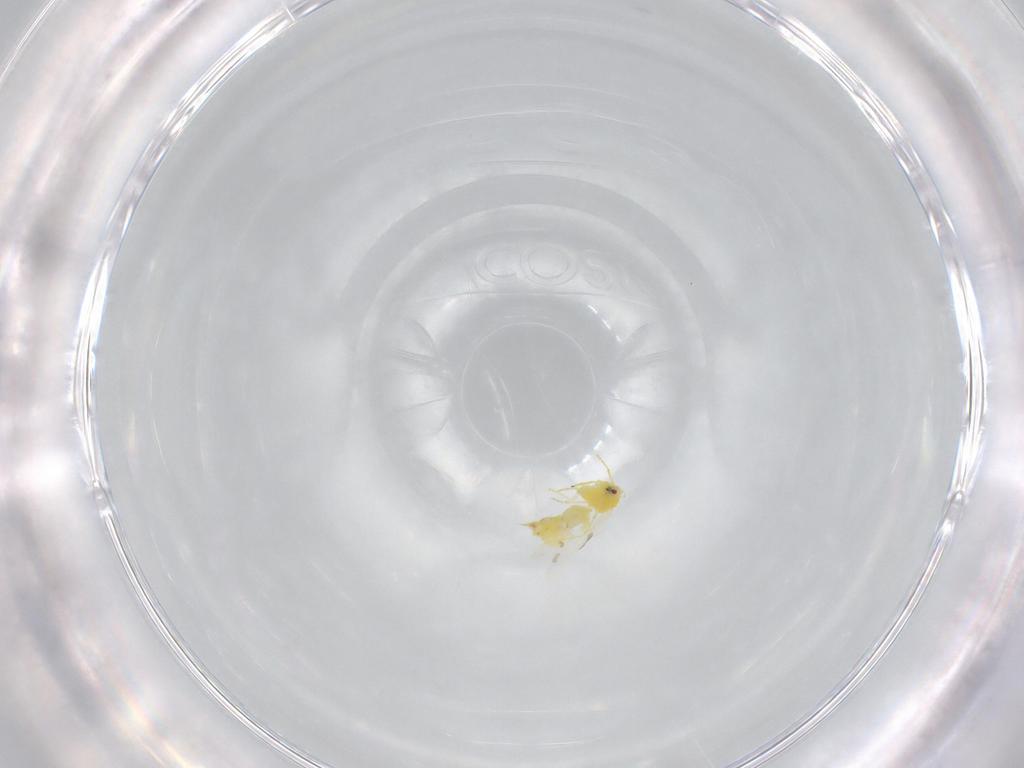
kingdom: Animalia
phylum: Arthropoda
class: Insecta
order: Hemiptera
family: Aleyrodidae
